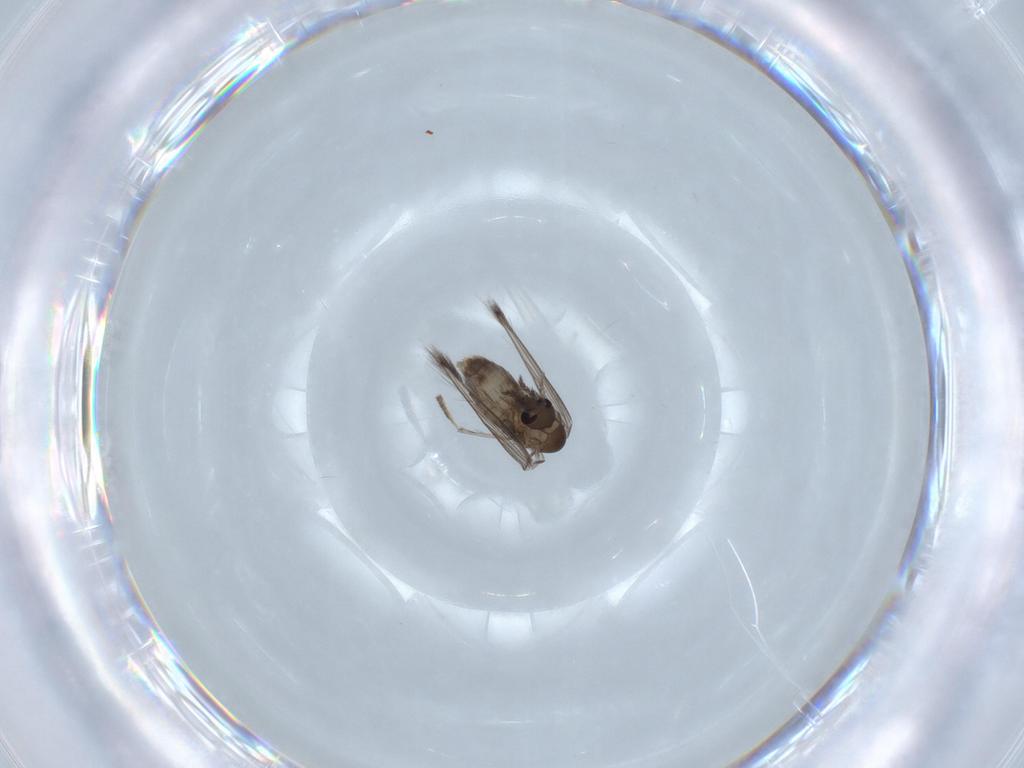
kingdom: Animalia
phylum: Arthropoda
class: Insecta
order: Diptera
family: Psychodidae
